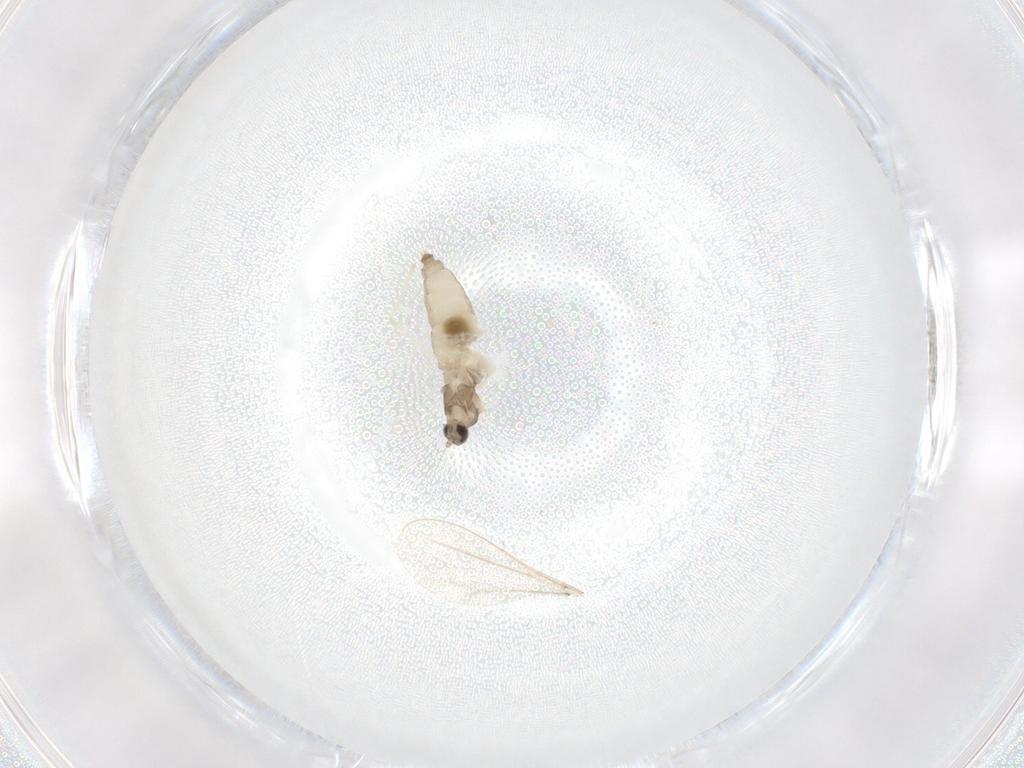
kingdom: Animalia
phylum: Arthropoda
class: Insecta
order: Diptera
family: Cecidomyiidae
